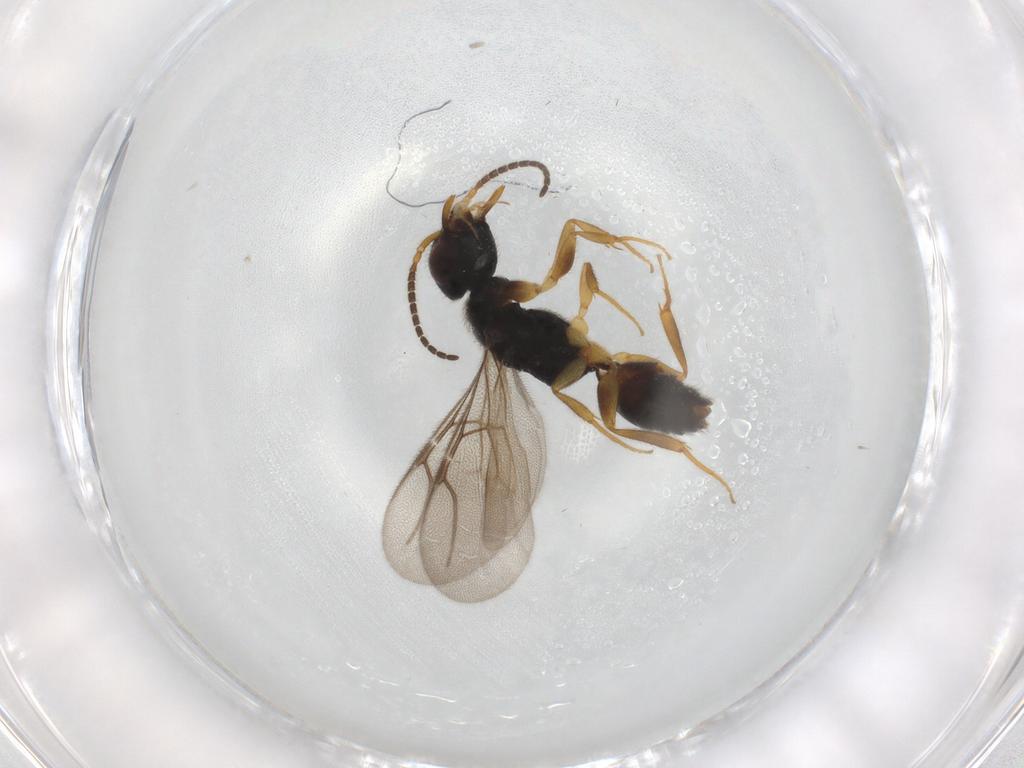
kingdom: Animalia
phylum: Arthropoda
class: Insecta
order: Hymenoptera
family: Bethylidae
